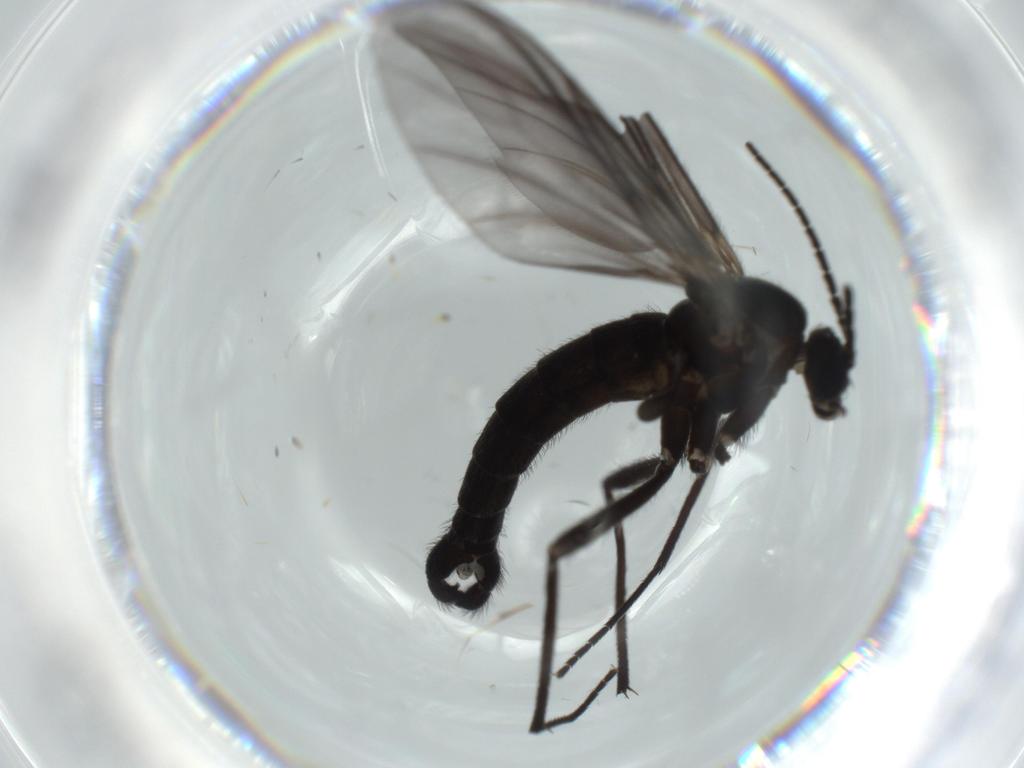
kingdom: Animalia
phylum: Arthropoda
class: Insecta
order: Diptera
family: Dolichopodidae
